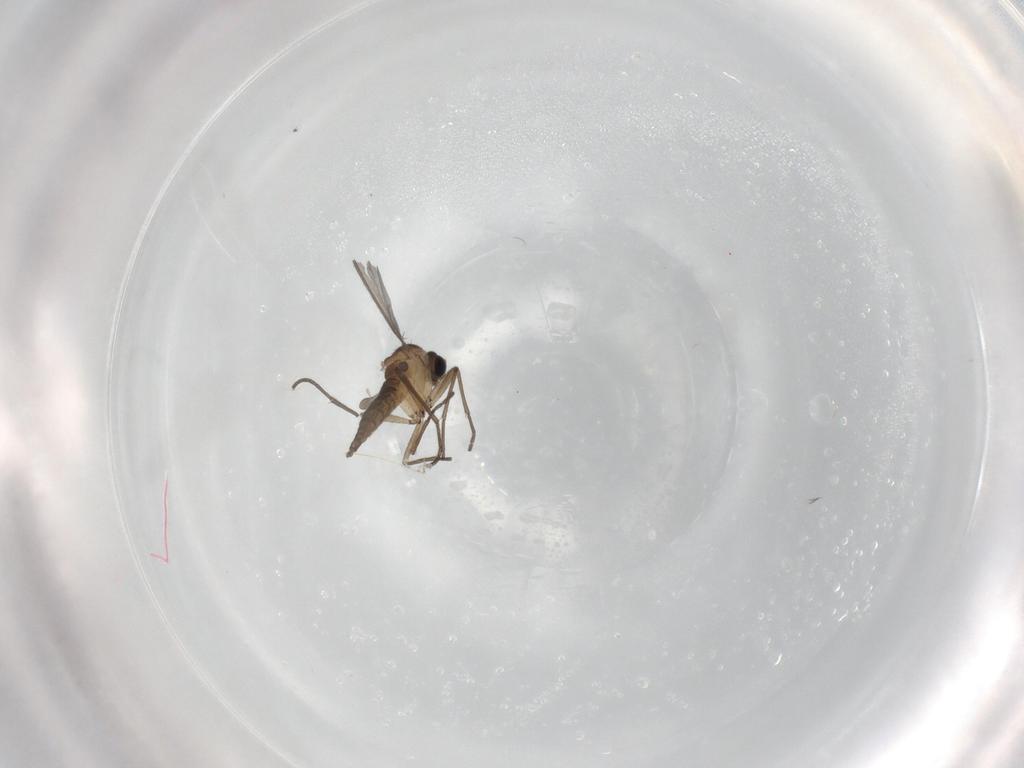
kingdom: Animalia
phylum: Arthropoda
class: Insecta
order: Diptera
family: Sciaridae
